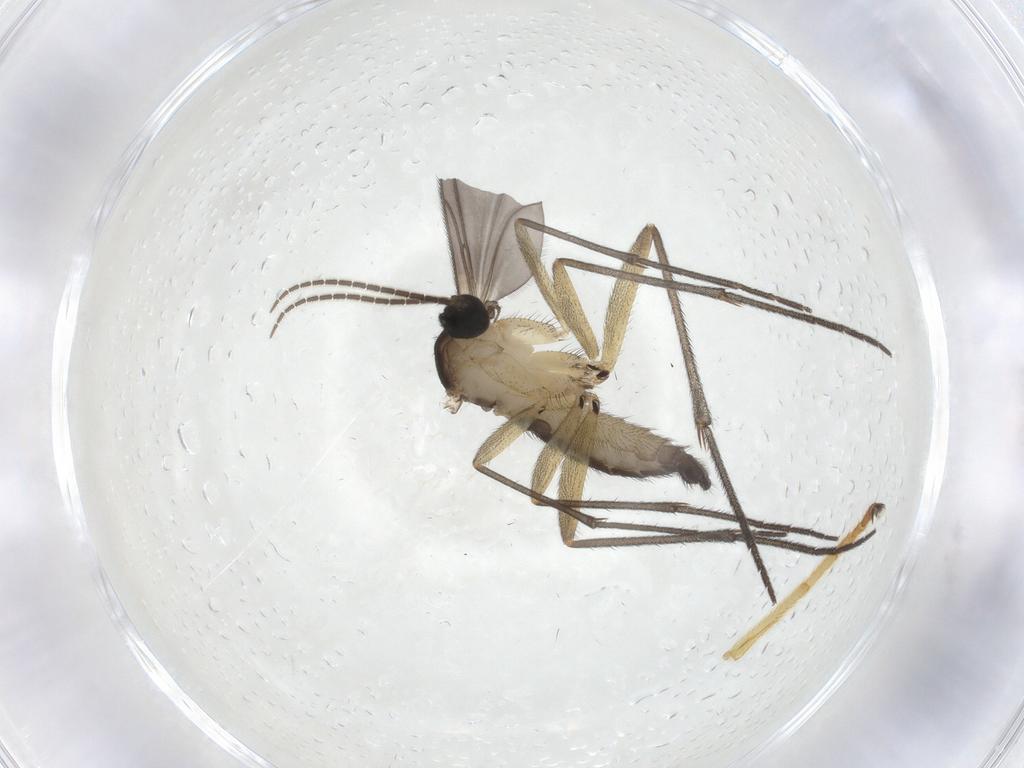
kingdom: Animalia
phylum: Arthropoda
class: Insecta
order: Diptera
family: Sciaridae
